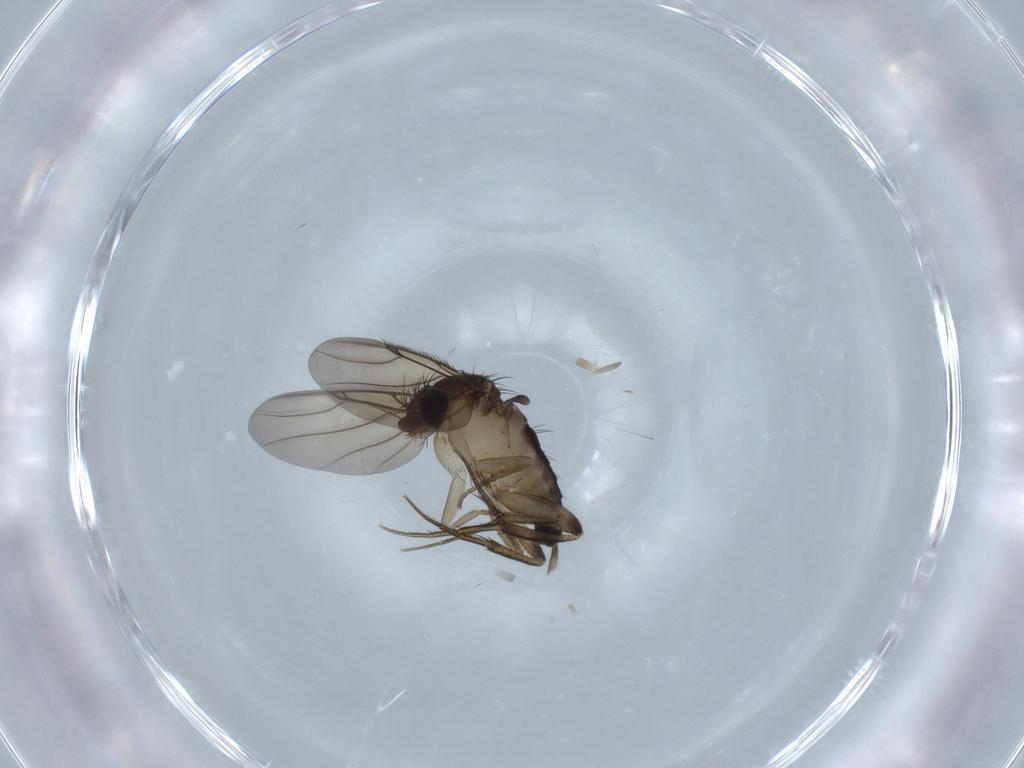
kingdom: Animalia
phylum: Arthropoda
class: Insecta
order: Diptera
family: Phoridae
